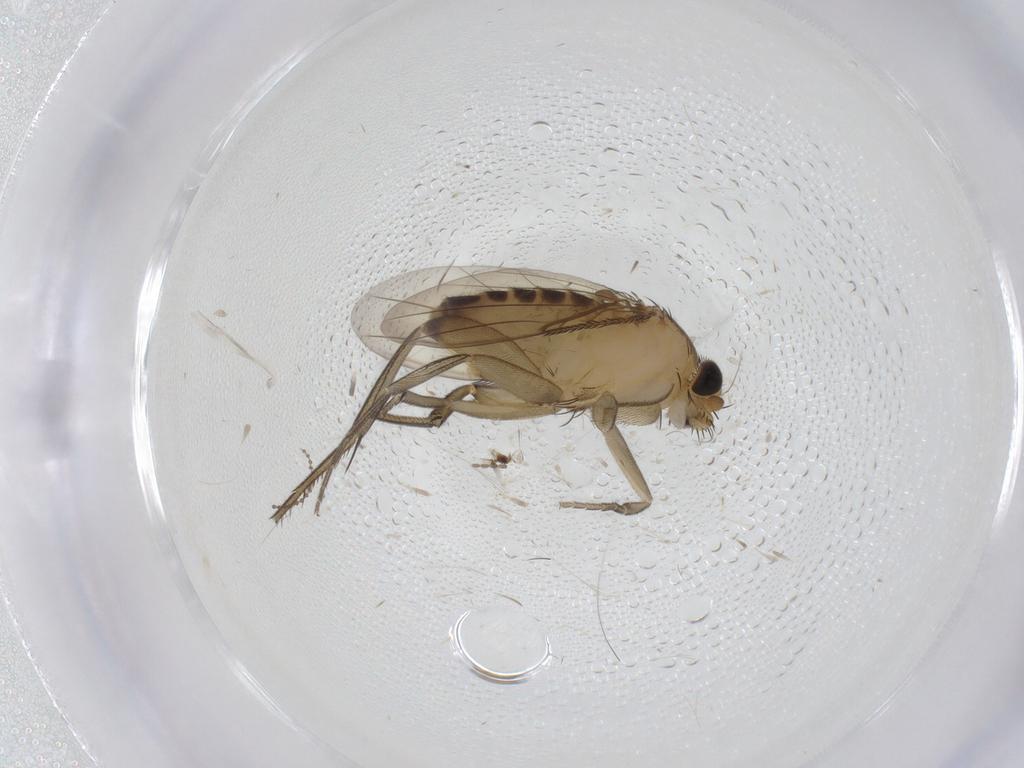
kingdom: Animalia
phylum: Arthropoda
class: Insecta
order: Diptera
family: Phoridae
